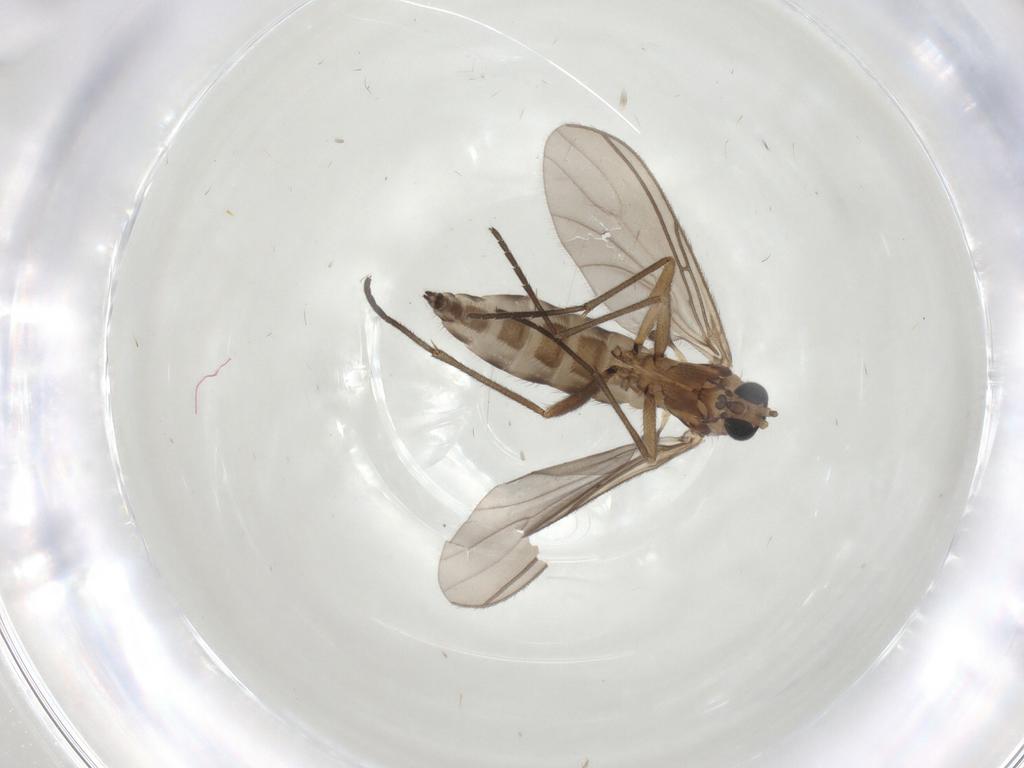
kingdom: Animalia
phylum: Arthropoda
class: Insecta
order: Diptera
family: Sciaridae
